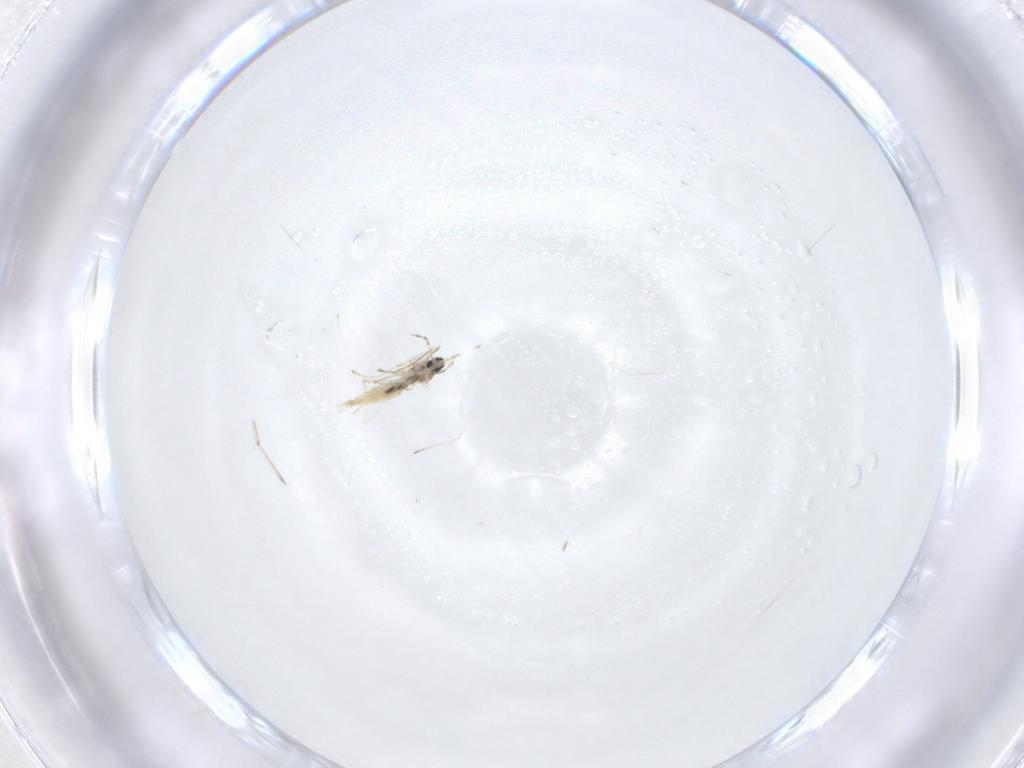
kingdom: Animalia
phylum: Arthropoda
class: Insecta
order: Diptera
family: Cecidomyiidae
